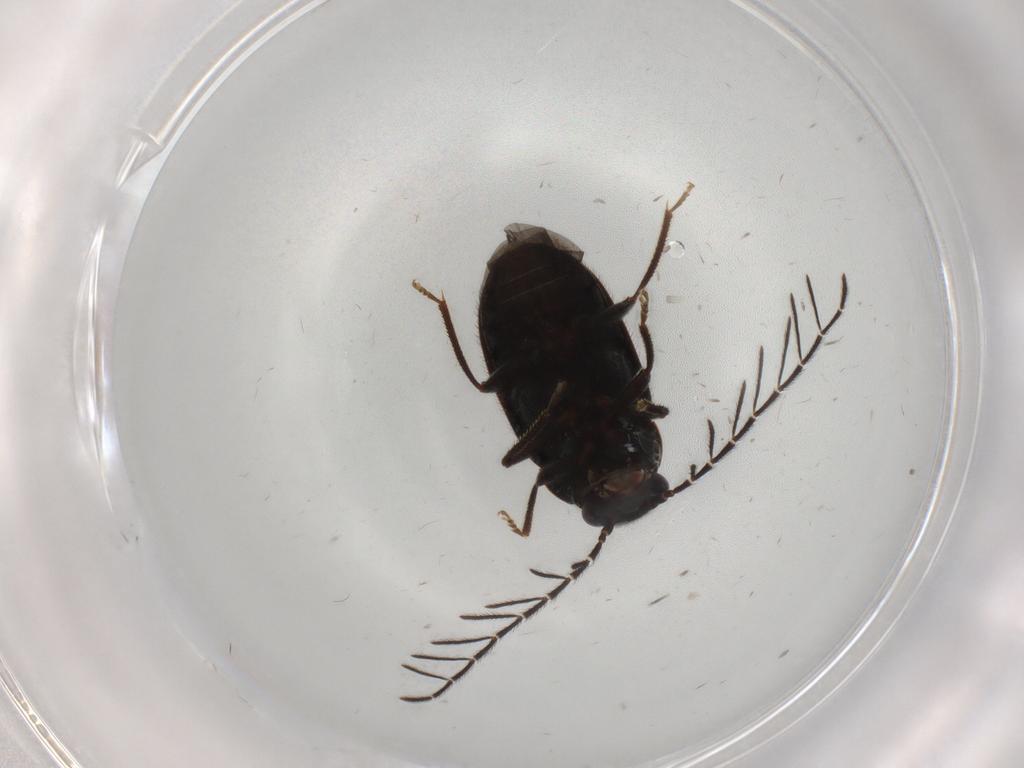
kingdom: Animalia
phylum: Arthropoda
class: Insecta
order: Coleoptera
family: Ptilodactylidae
